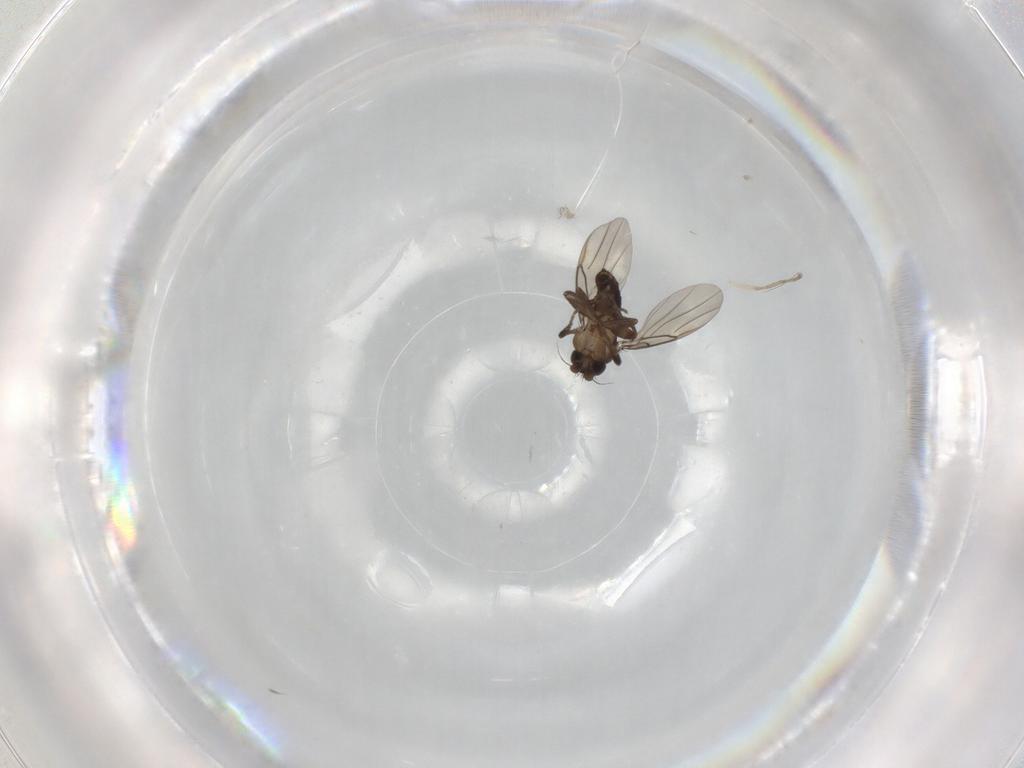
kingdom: Animalia
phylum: Arthropoda
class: Insecta
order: Diptera
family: Phoridae
